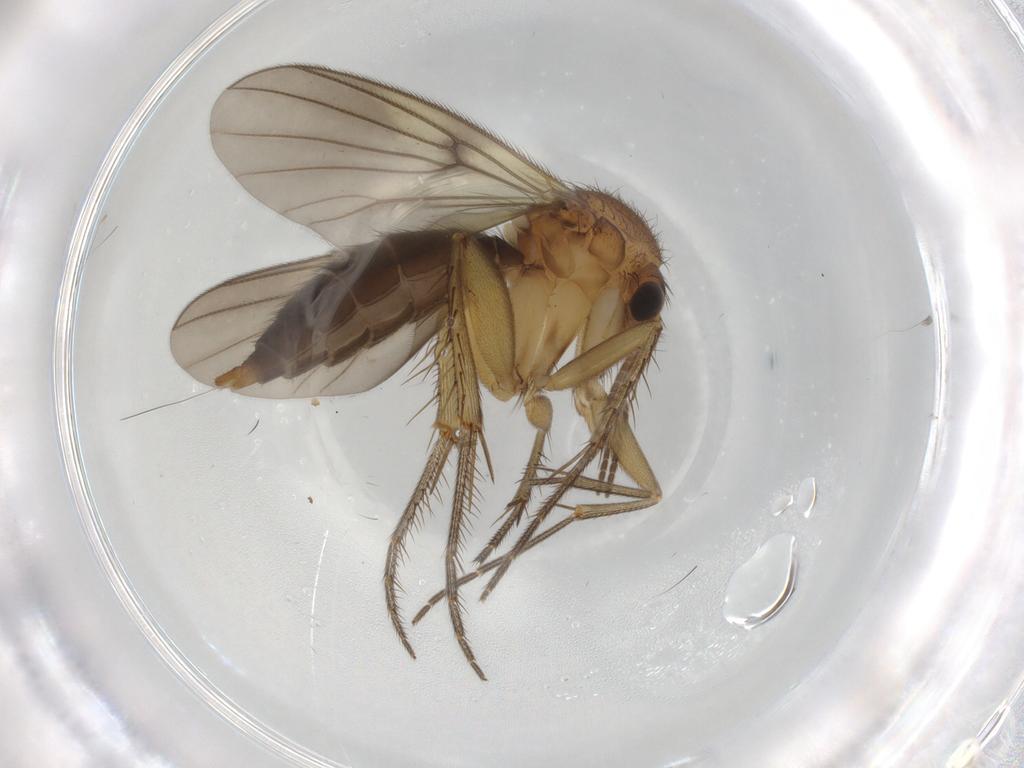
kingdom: Animalia
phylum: Arthropoda
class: Insecta
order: Diptera
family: Mycetophilidae
